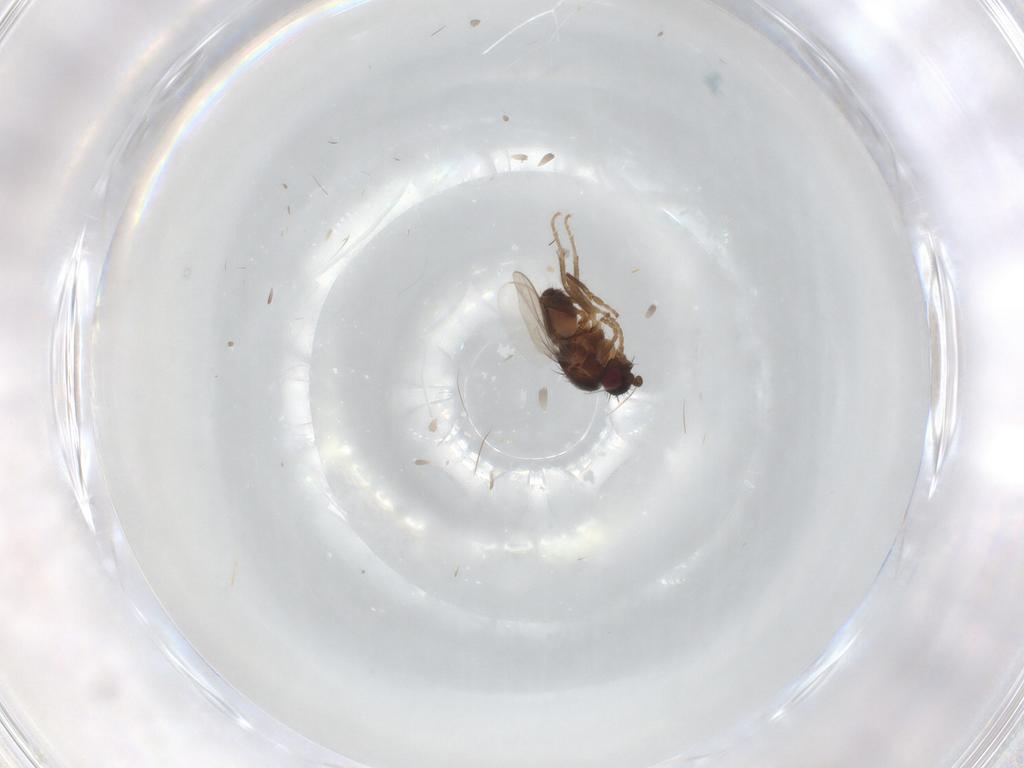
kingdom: Animalia
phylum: Arthropoda
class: Insecta
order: Diptera
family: Sphaeroceridae
